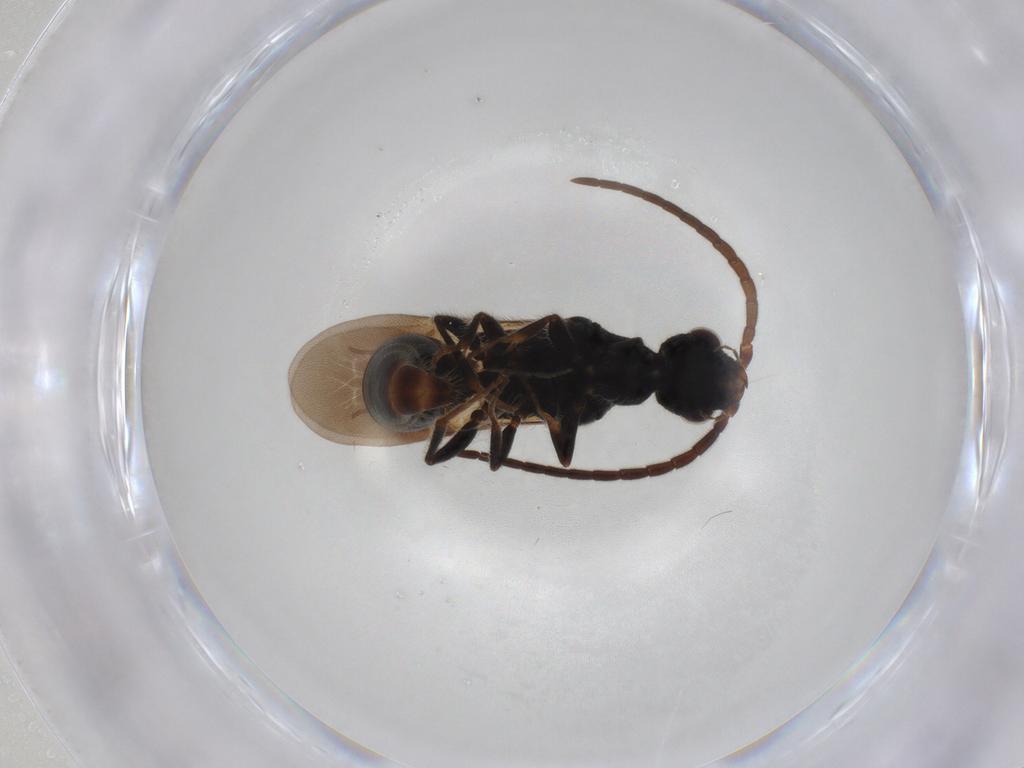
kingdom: Animalia
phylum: Arthropoda
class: Insecta
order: Hymenoptera
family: Bethylidae
